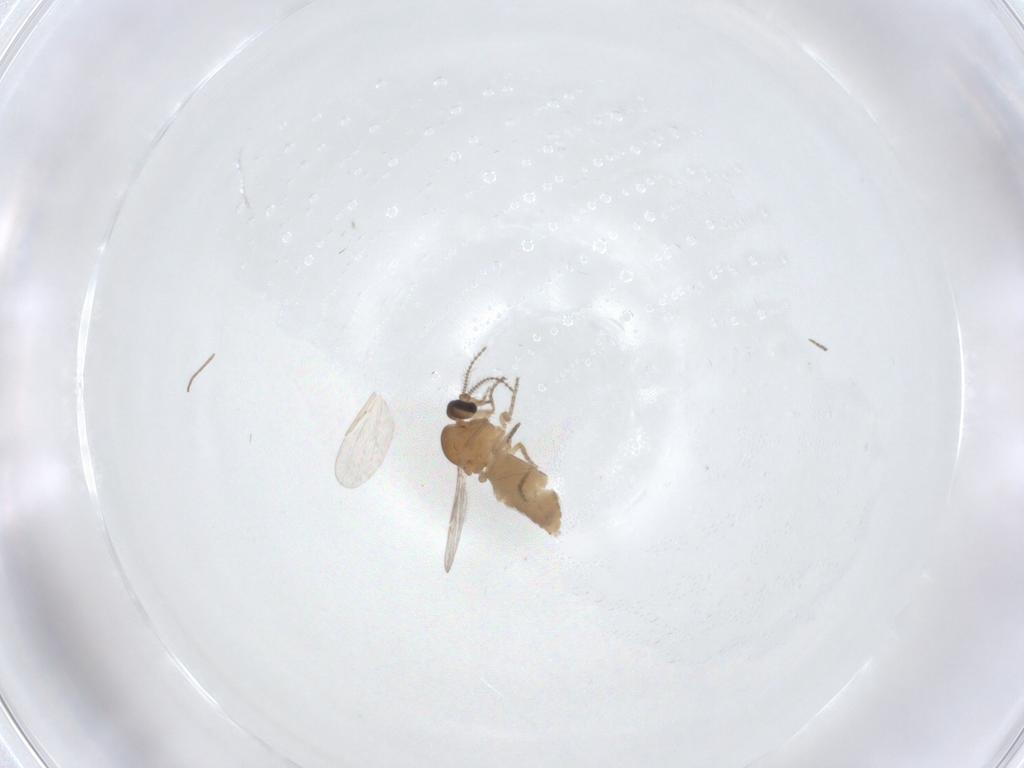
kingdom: Animalia
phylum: Arthropoda
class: Insecta
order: Diptera
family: Ceratopogonidae
